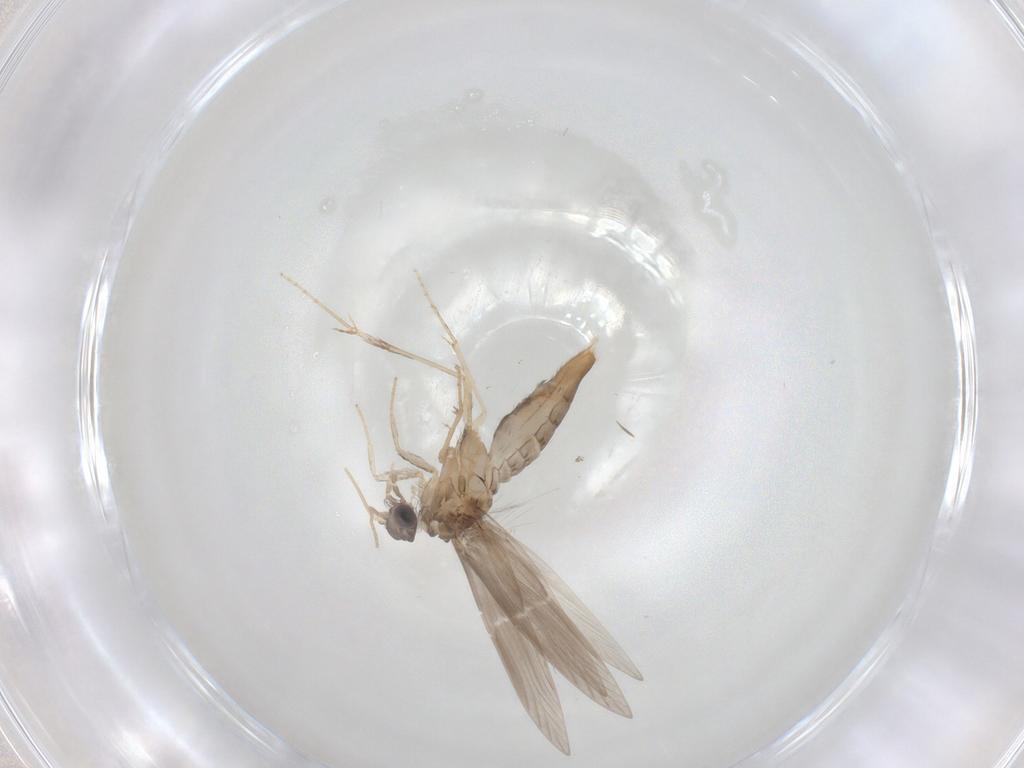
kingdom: Animalia
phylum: Arthropoda
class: Insecta
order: Trichoptera
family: Hydroptilidae
